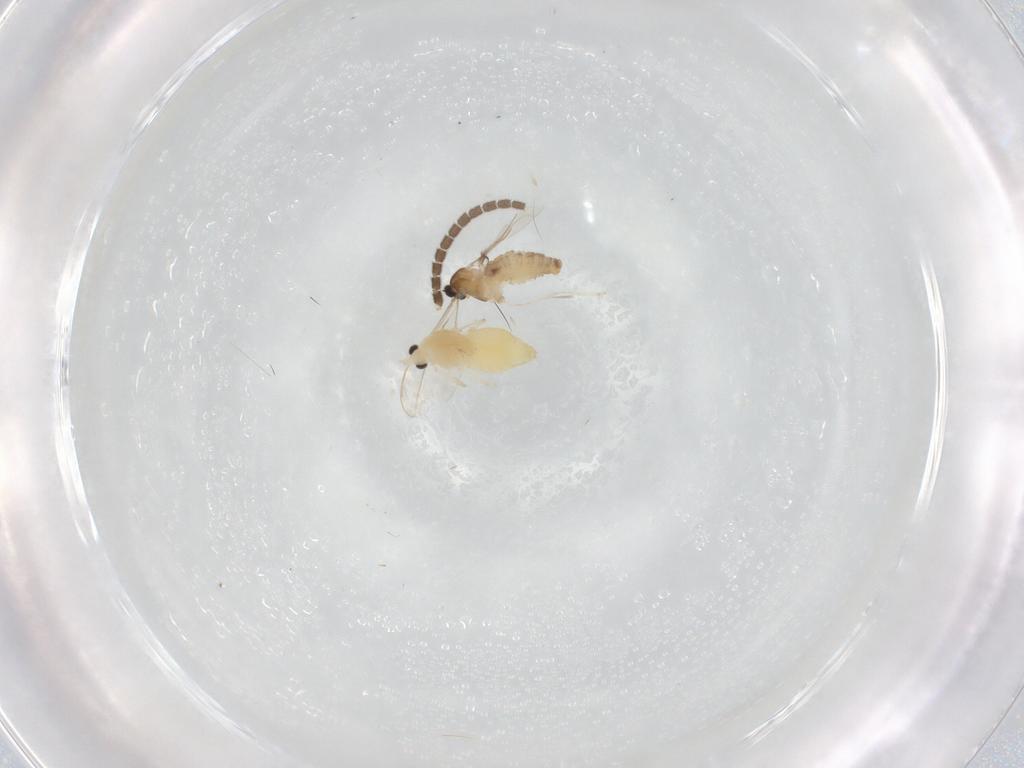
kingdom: Animalia
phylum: Arthropoda
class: Insecta
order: Diptera
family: Cecidomyiidae
